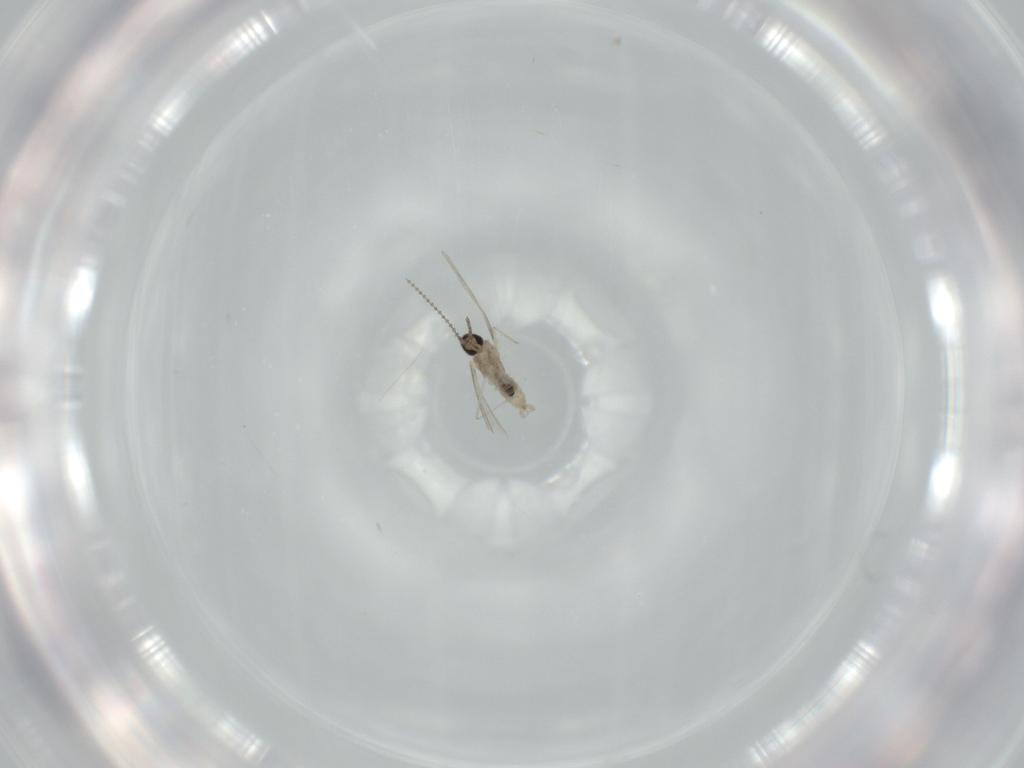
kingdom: Animalia
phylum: Arthropoda
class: Insecta
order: Diptera
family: Cecidomyiidae
